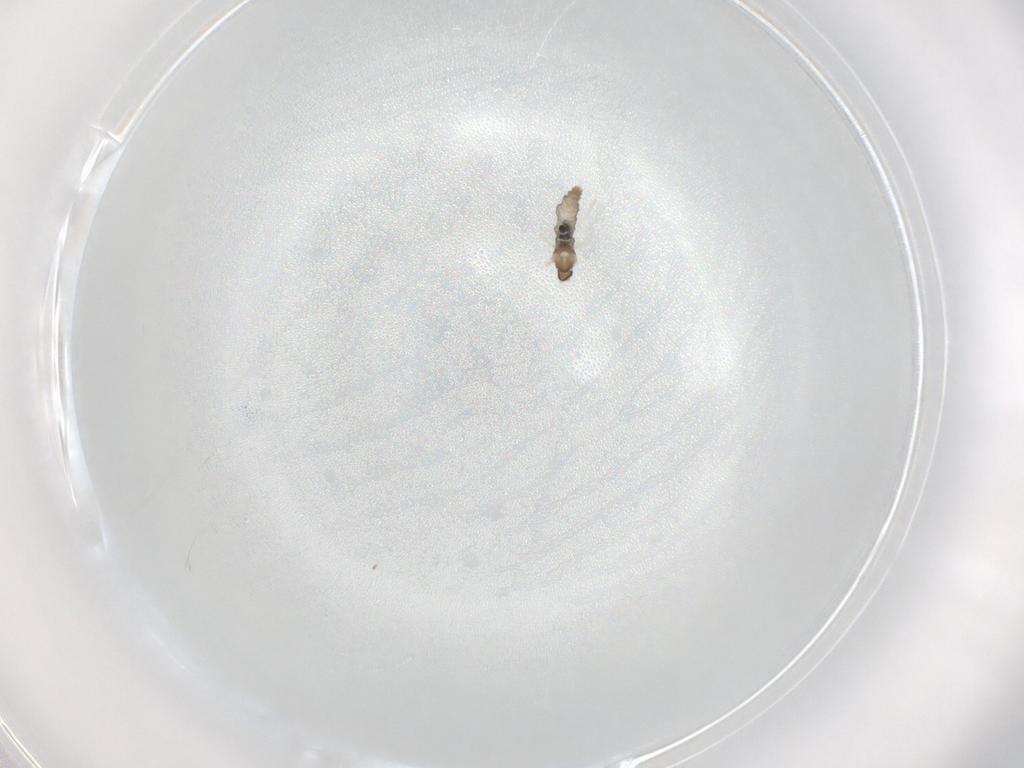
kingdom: Animalia
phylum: Arthropoda
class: Insecta
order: Diptera
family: Cecidomyiidae
